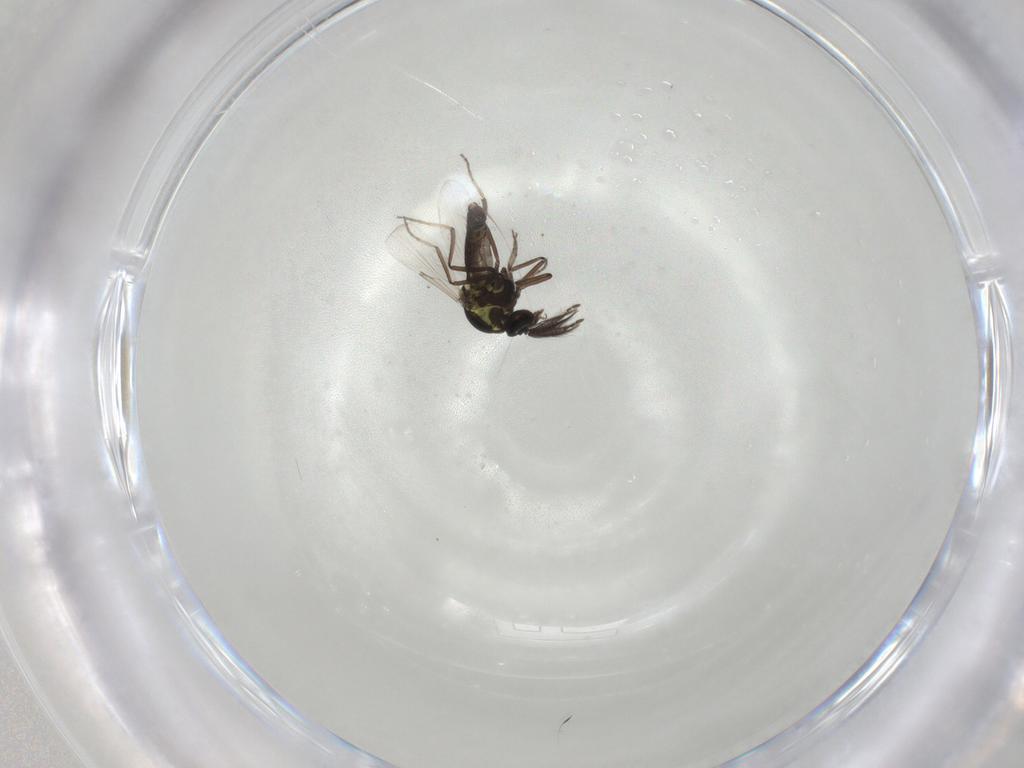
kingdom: Animalia
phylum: Arthropoda
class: Insecta
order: Diptera
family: Ceratopogonidae
